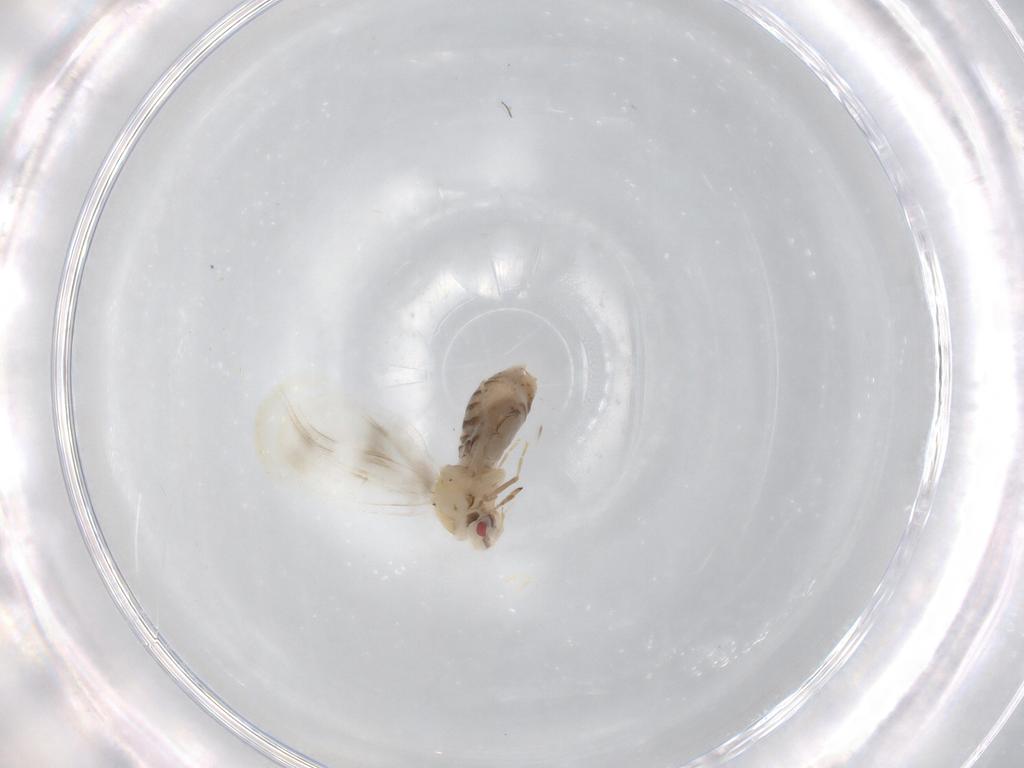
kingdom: Animalia
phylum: Arthropoda
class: Insecta
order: Hemiptera
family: Aleyrodidae
